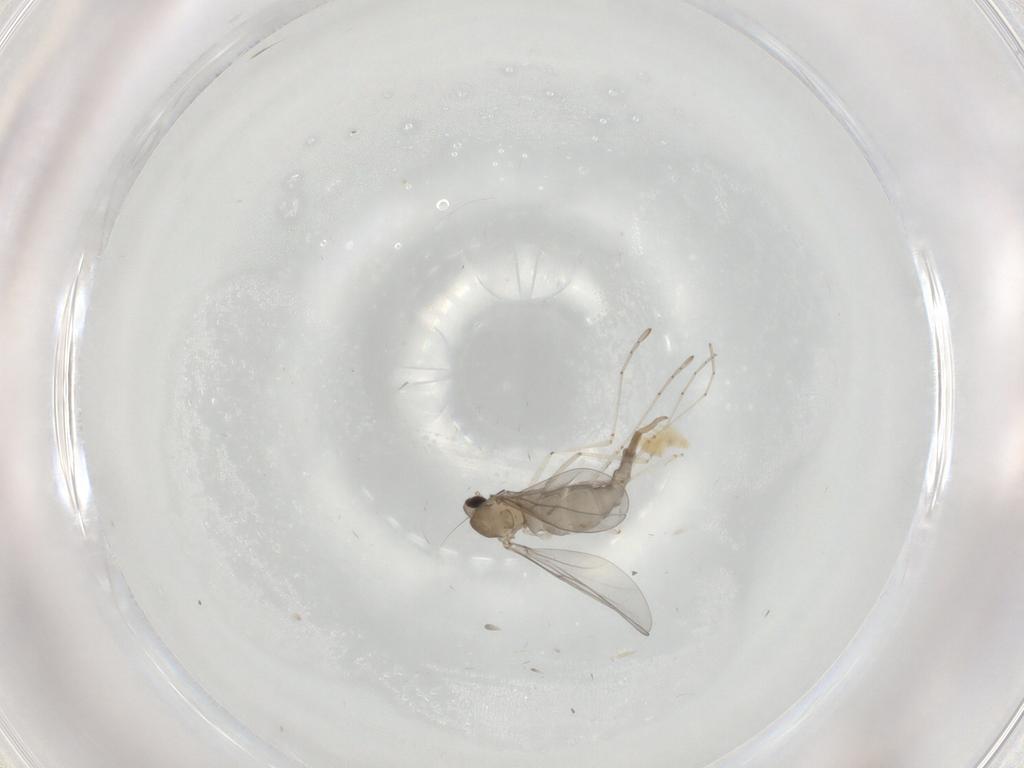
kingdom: Animalia
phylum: Arthropoda
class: Insecta
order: Diptera
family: Cecidomyiidae
